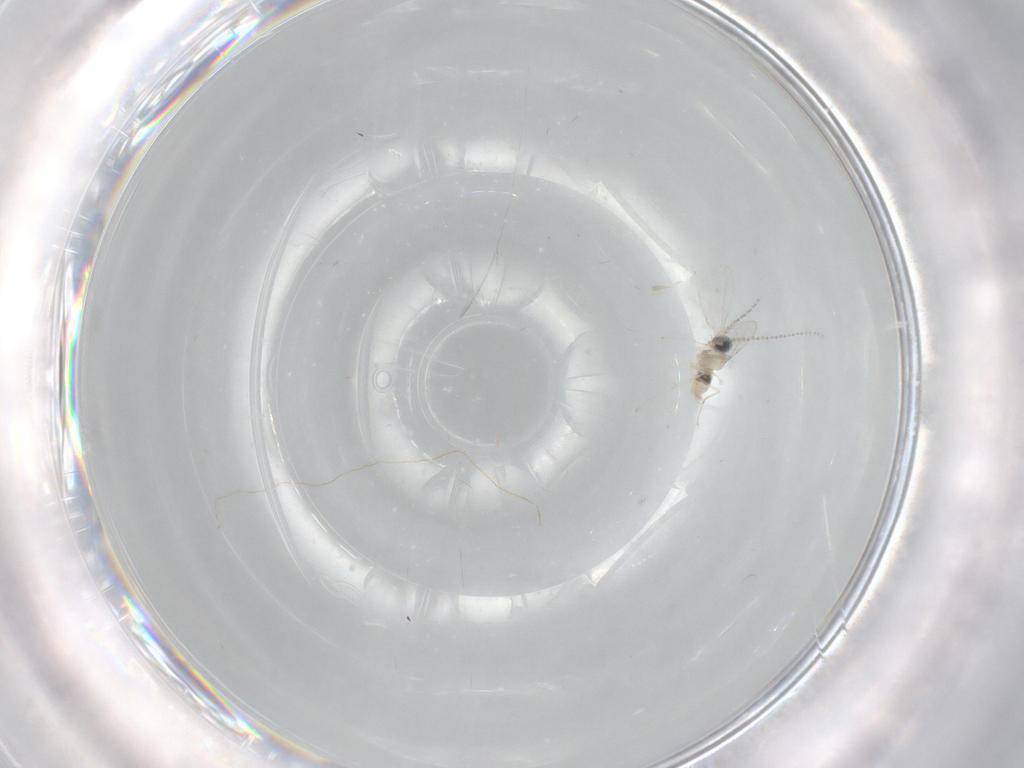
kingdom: Animalia
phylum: Arthropoda
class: Insecta
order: Diptera
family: Cecidomyiidae
